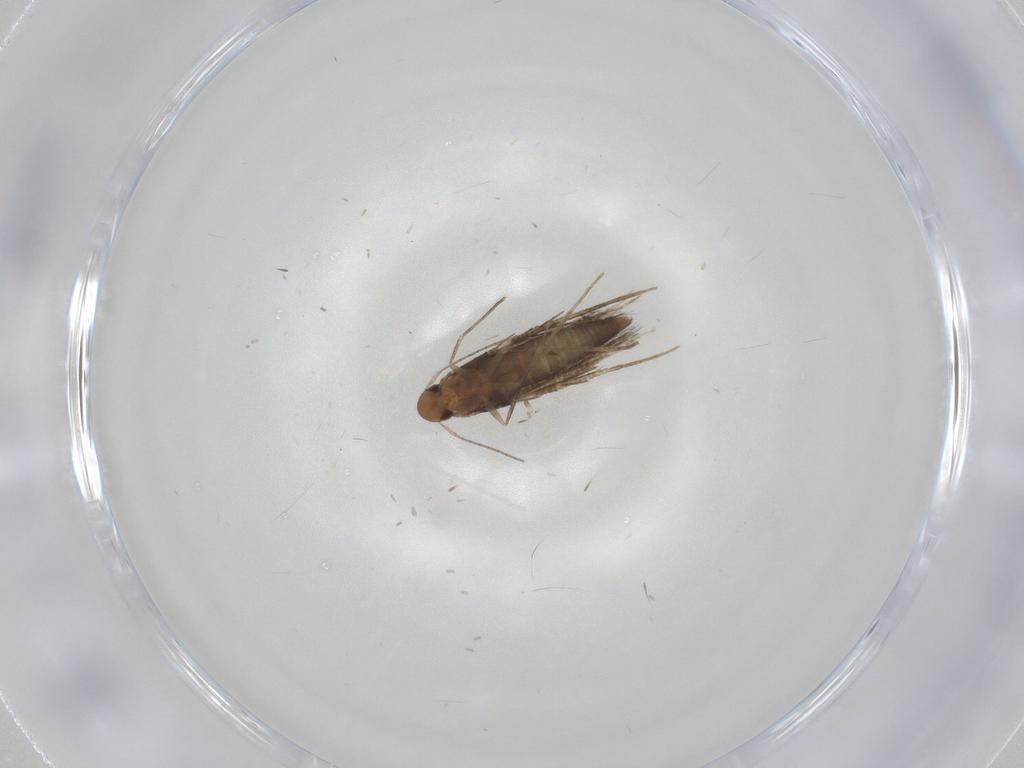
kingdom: Animalia
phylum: Arthropoda
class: Insecta
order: Lepidoptera
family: Gelechiidae
